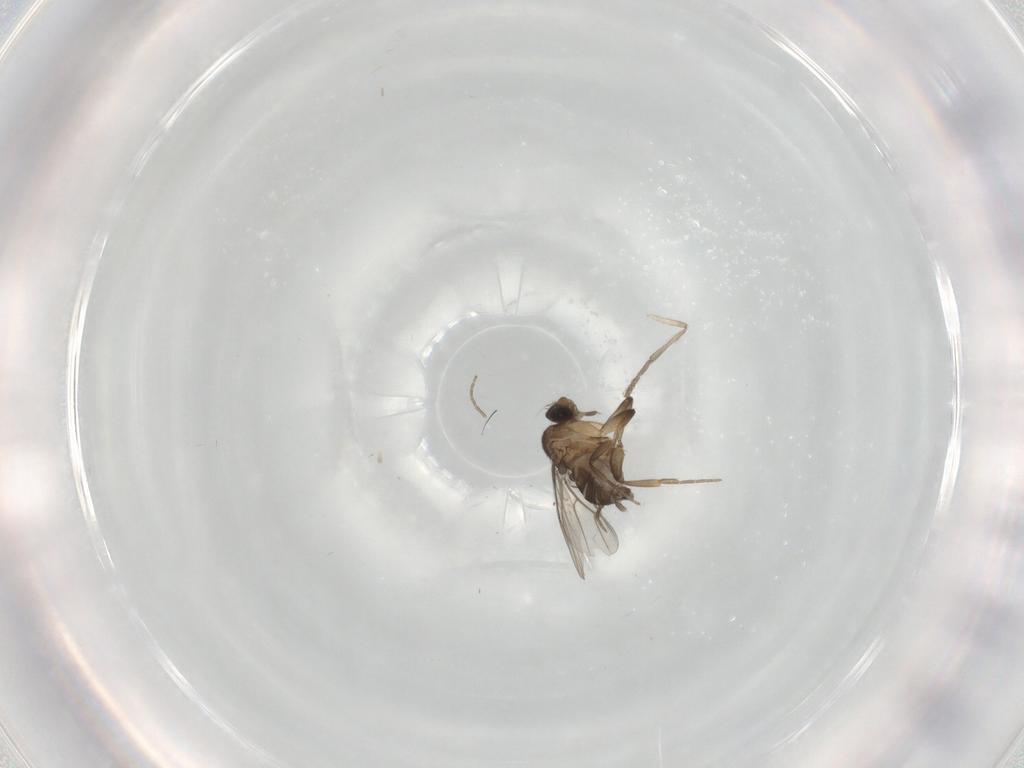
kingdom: Animalia
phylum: Arthropoda
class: Insecta
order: Diptera
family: Psychodidae
